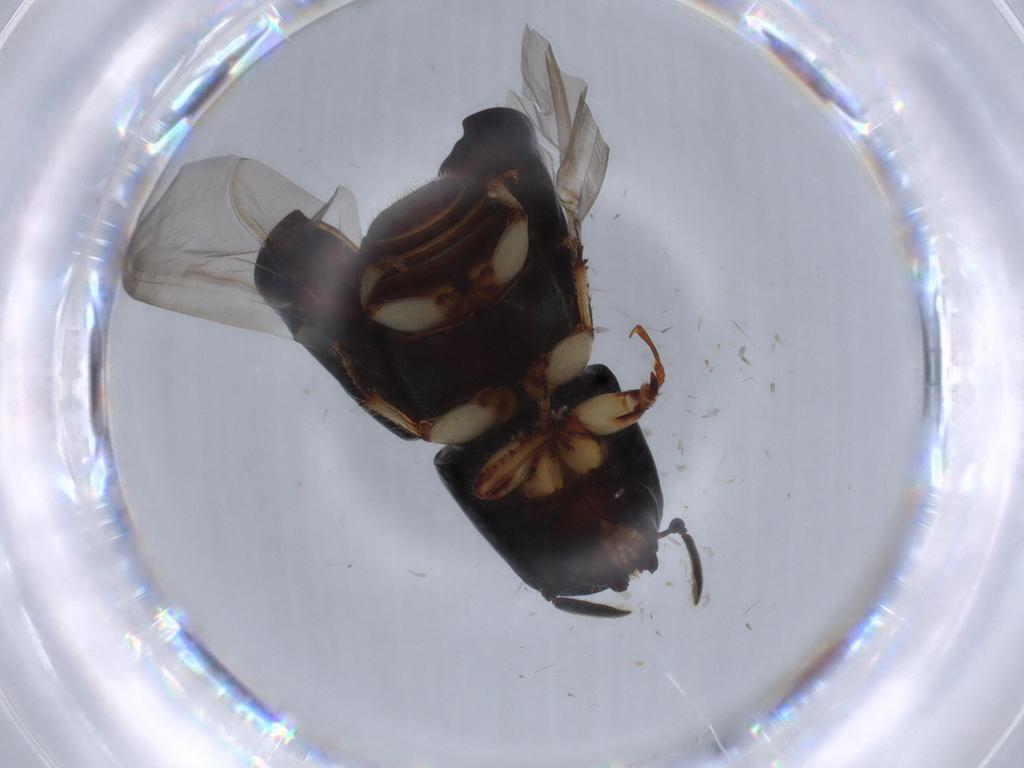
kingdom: Animalia
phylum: Arthropoda
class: Insecta
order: Coleoptera
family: Curculionidae
